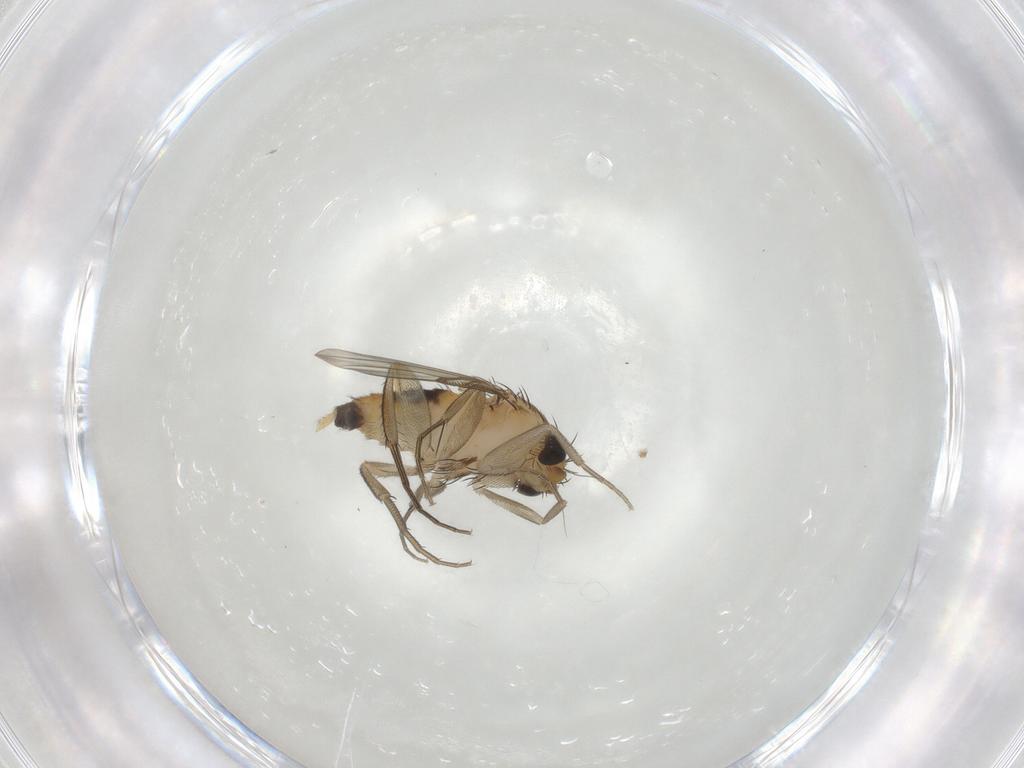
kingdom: Animalia
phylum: Arthropoda
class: Insecta
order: Diptera
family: Phoridae
